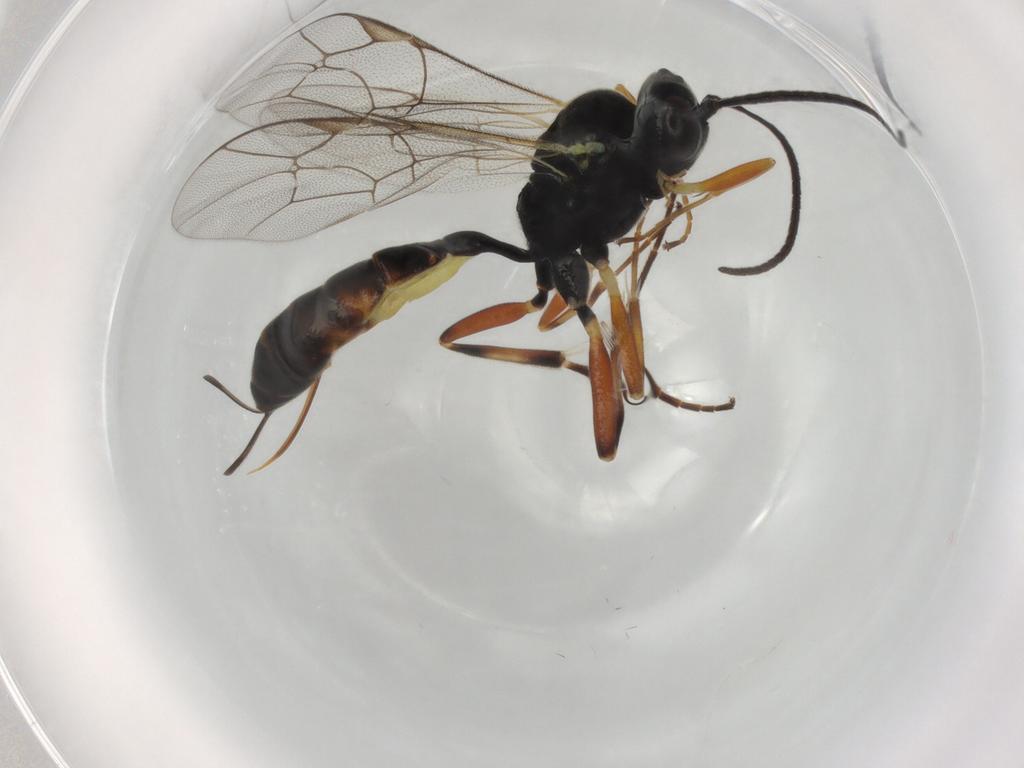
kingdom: Animalia
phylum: Arthropoda
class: Insecta
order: Hymenoptera
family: Ichneumonidae
